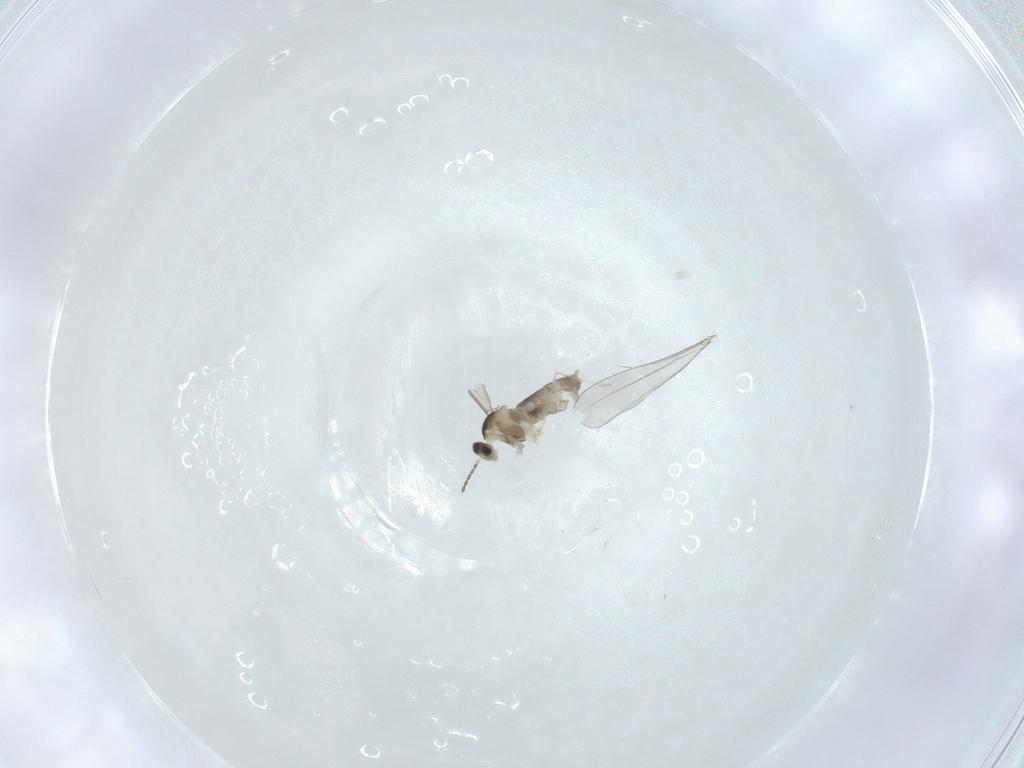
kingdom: Animalia
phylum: Arthropoda
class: Insecta
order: Diptera
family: Cecidomyiidae
